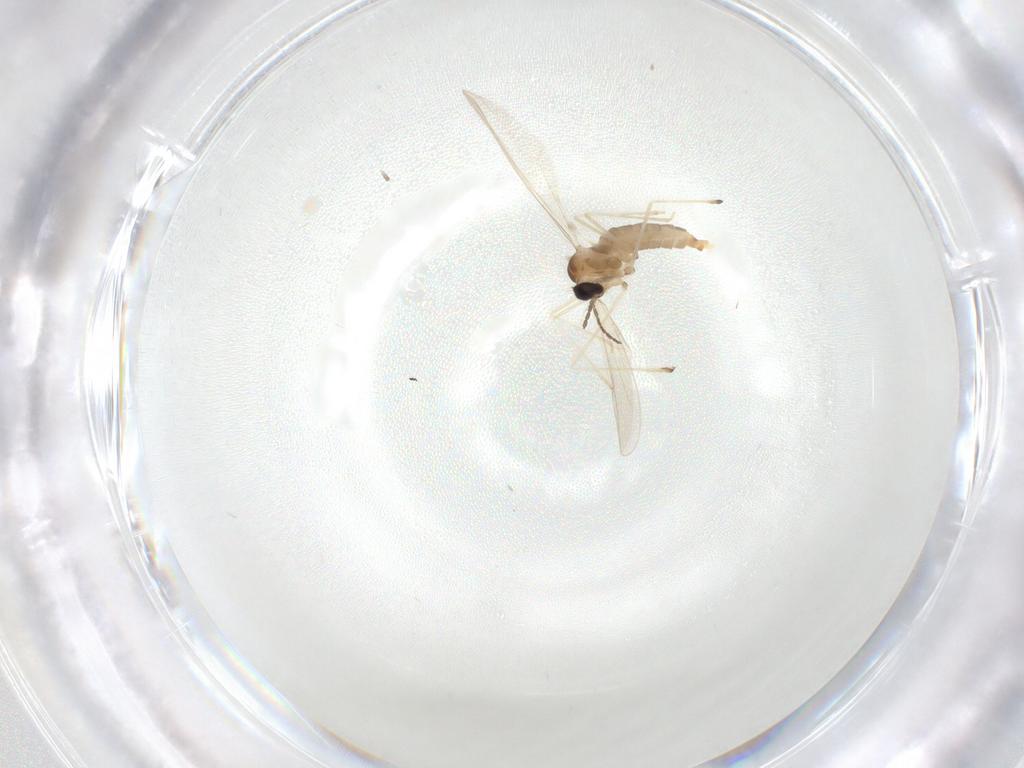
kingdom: Animalia
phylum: Arthropoda
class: Insecta
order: Diptera
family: Cecidomyiidae
